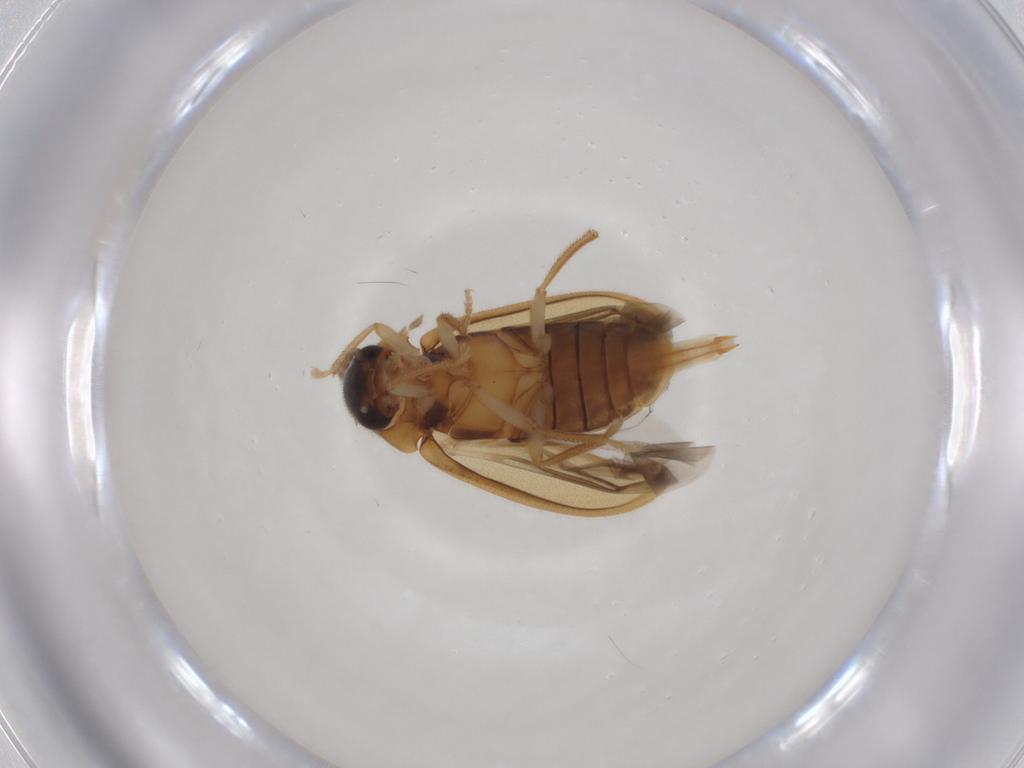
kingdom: Animalia
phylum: Arthropoda
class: Insecta
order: Coleoptera
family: Ptilodactylidae
